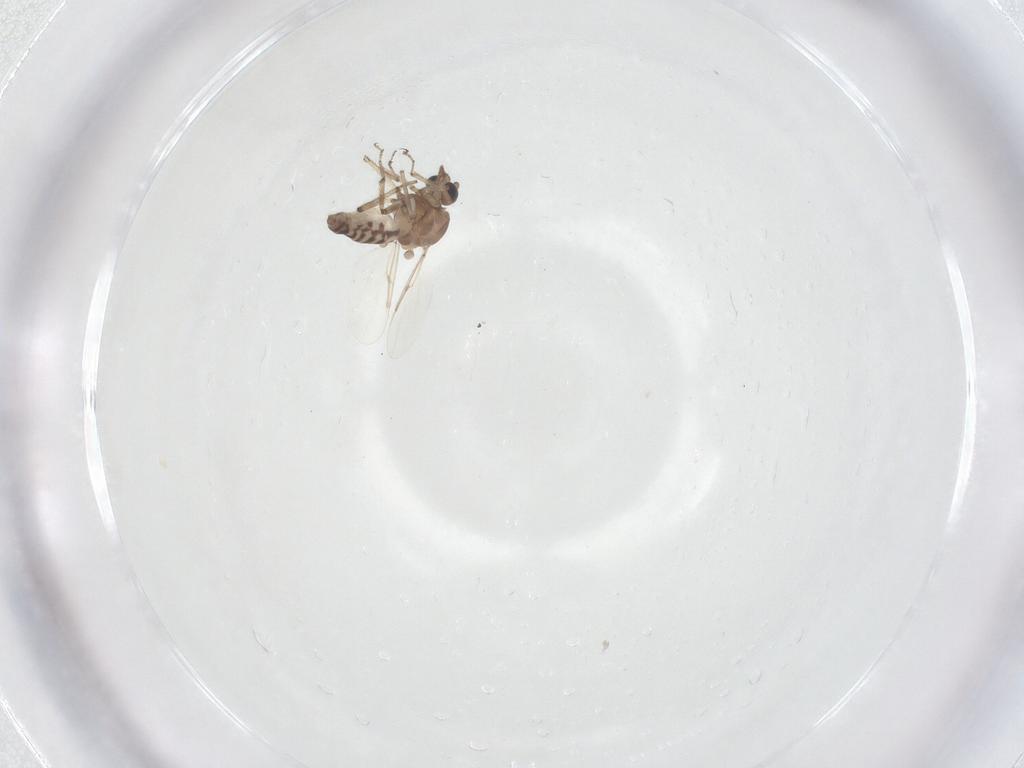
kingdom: Animalia
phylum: Arthropoda
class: Insecta
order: Diptera
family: Ceratopogonidae
